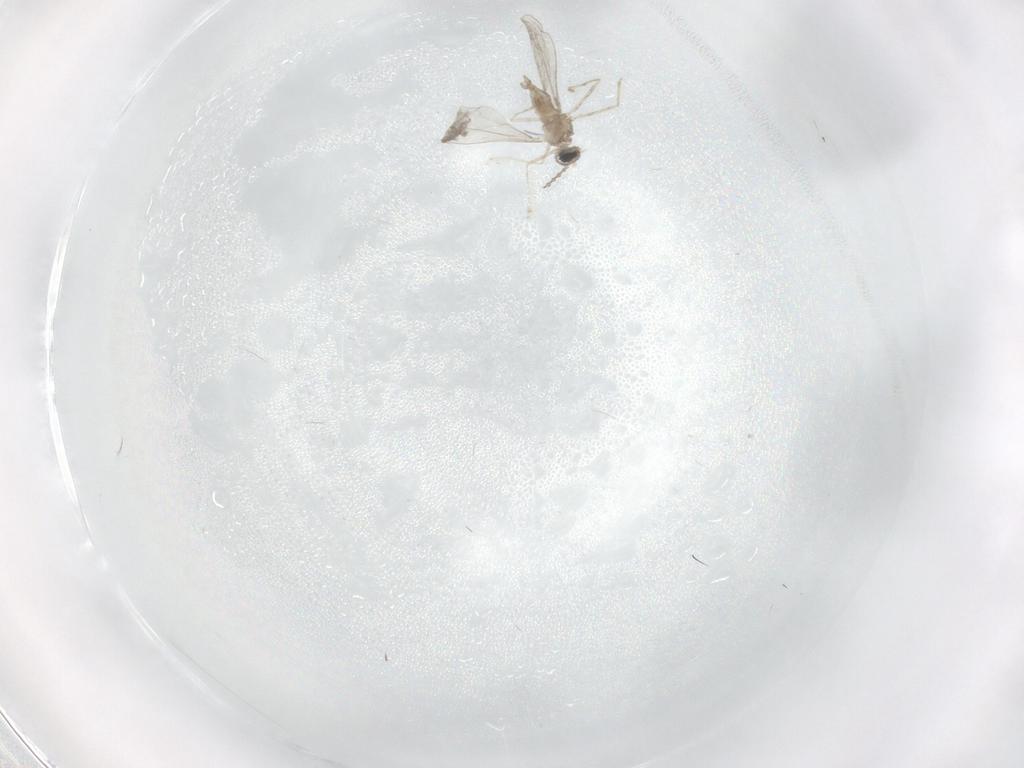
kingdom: Animalia
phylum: Arthropoda
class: Insecta
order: Diptera
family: Cecidomyiidae
